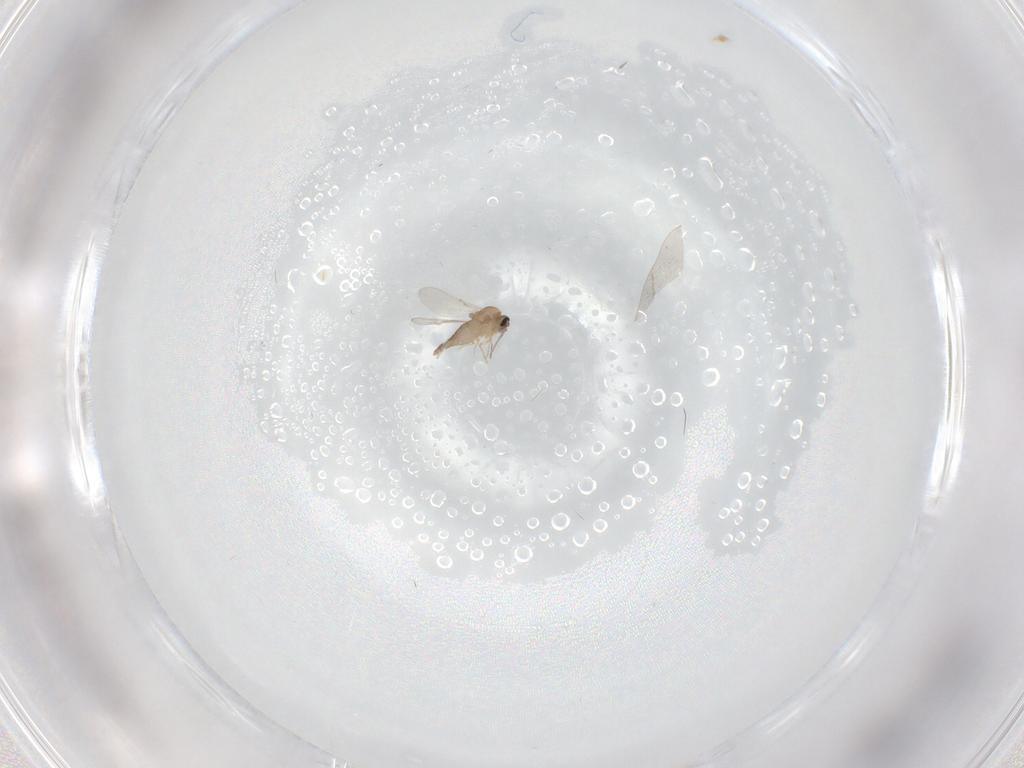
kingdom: Animalia
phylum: Arthropoda
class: Insecta
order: Diptera
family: Ceratopogonidae
